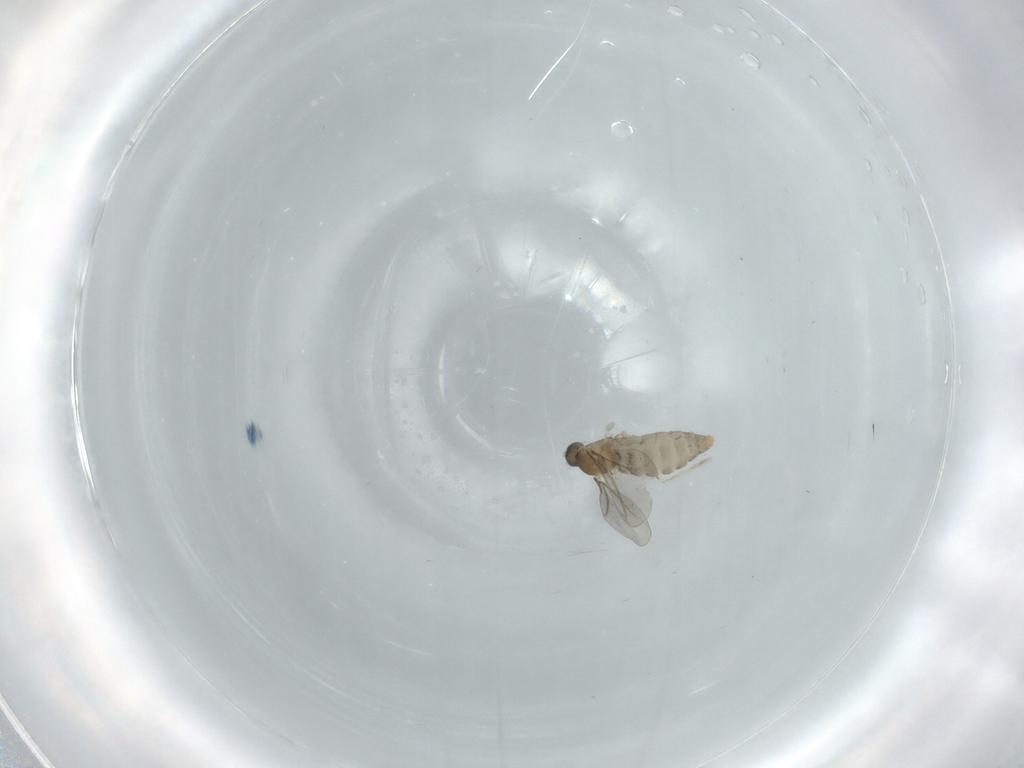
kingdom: Animalia
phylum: Arthropoda
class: Insecta
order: Diptera
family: Cecidomyiidae
